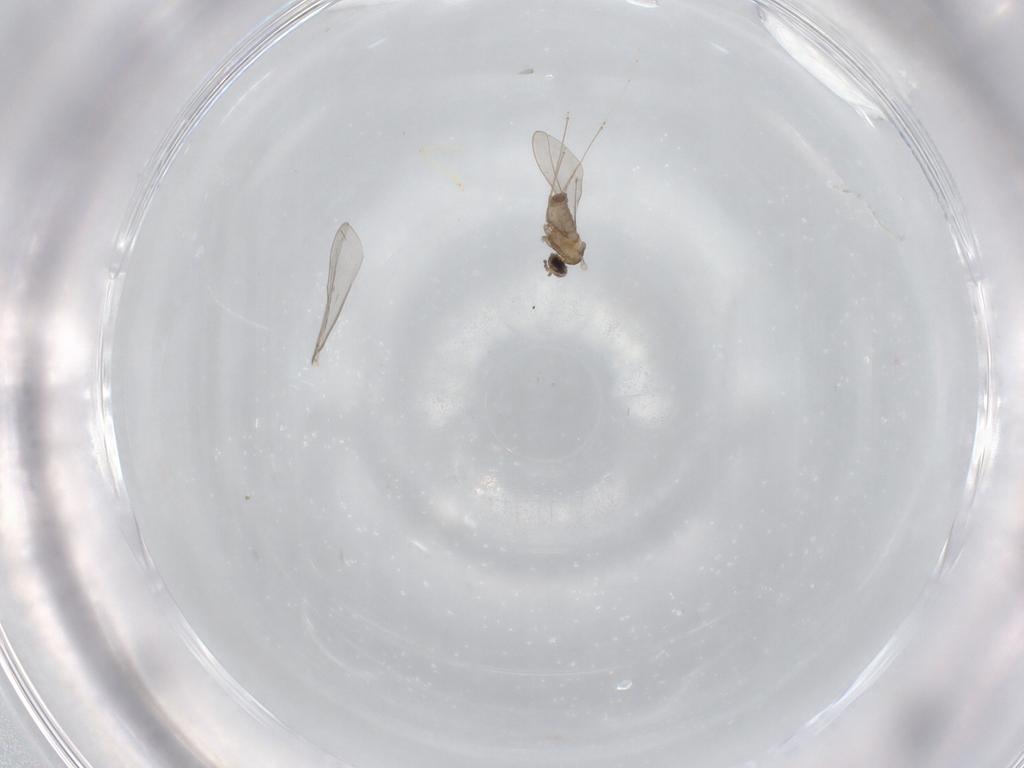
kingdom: Animalia
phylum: Arthropoda
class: Insecta
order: Diptera
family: Cecidomyiidae
